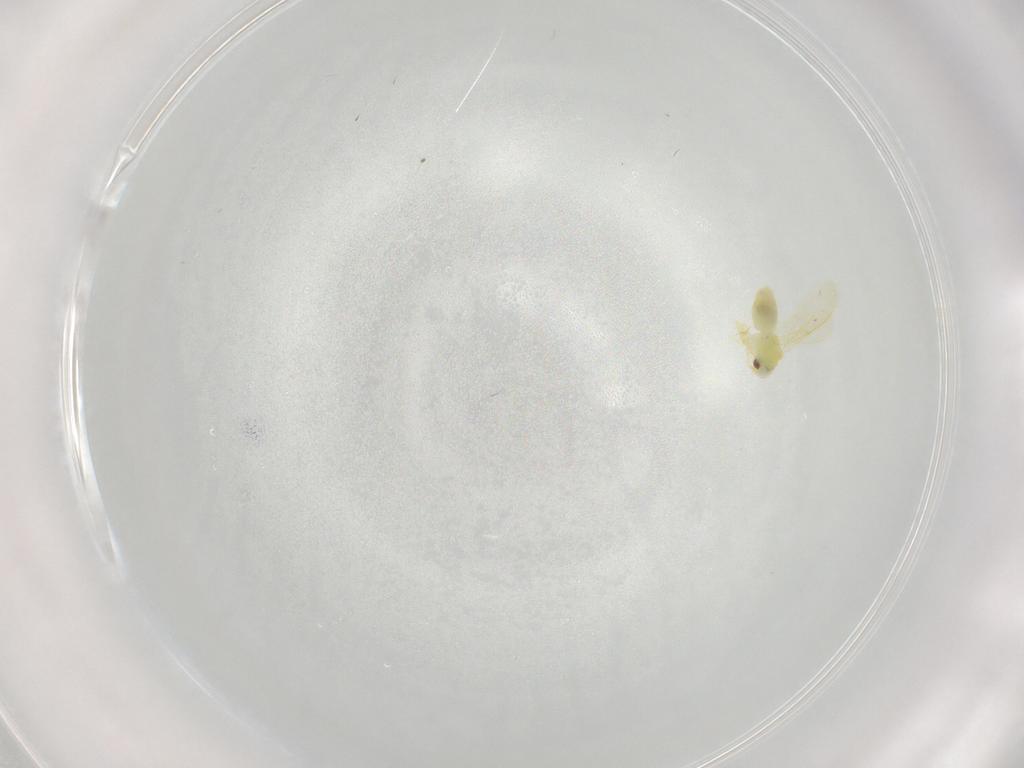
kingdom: Animalia
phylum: Arthropoda
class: Insecta
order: Hemiptera
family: Aleyrodidae
